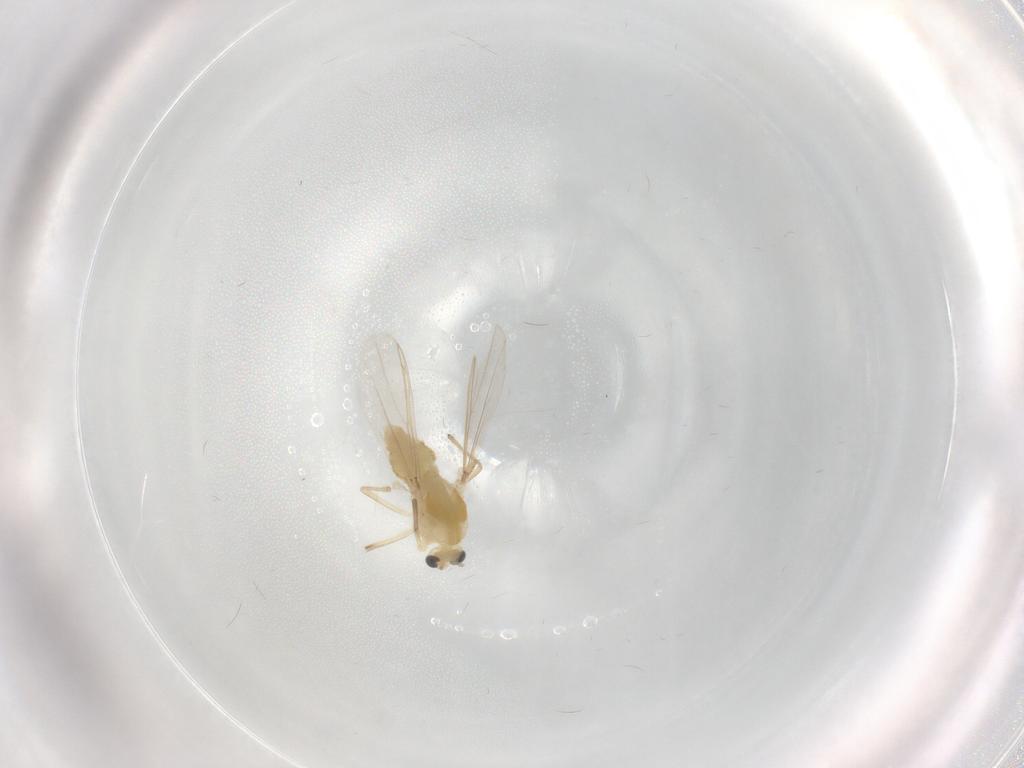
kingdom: Animalia
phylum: Arthropoda
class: Insecta
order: Diptera
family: Chironomidae
